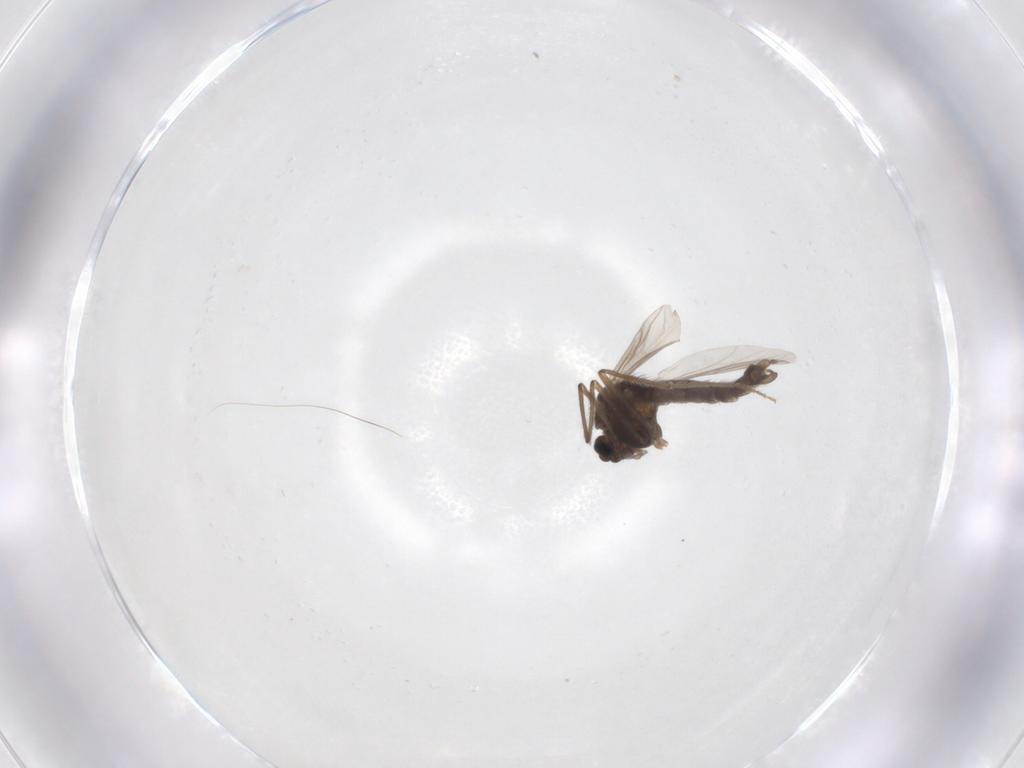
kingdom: Animalia
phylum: Arthropoda
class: Insecta
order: Diptera
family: Chironomidae
